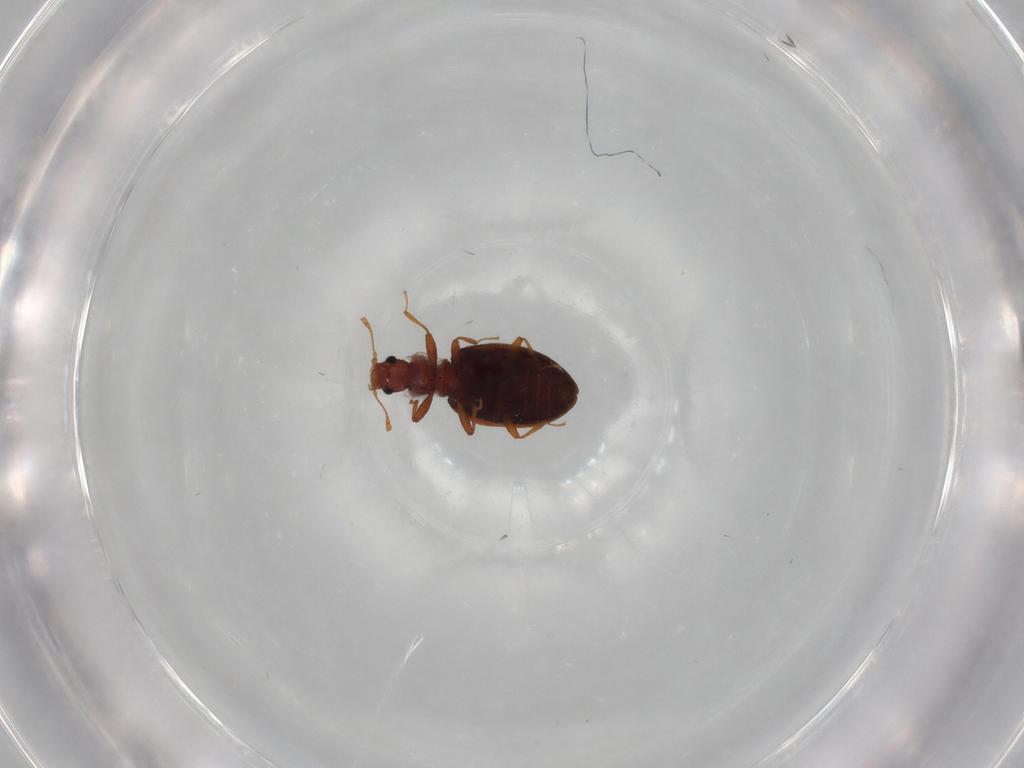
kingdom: Animalia
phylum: Arthropoda
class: Insecta
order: Coleoptera
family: Latridiidae
